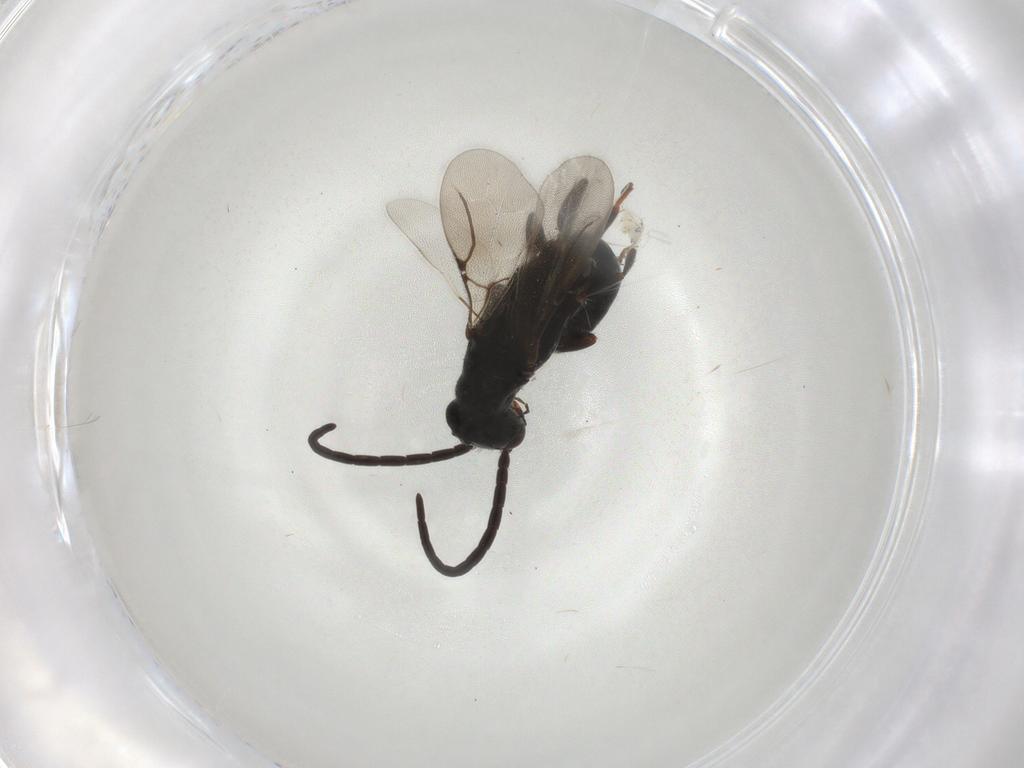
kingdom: Animalia
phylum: Arthropoda
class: Insecta
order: Hymenoptera
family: Bethylidae
